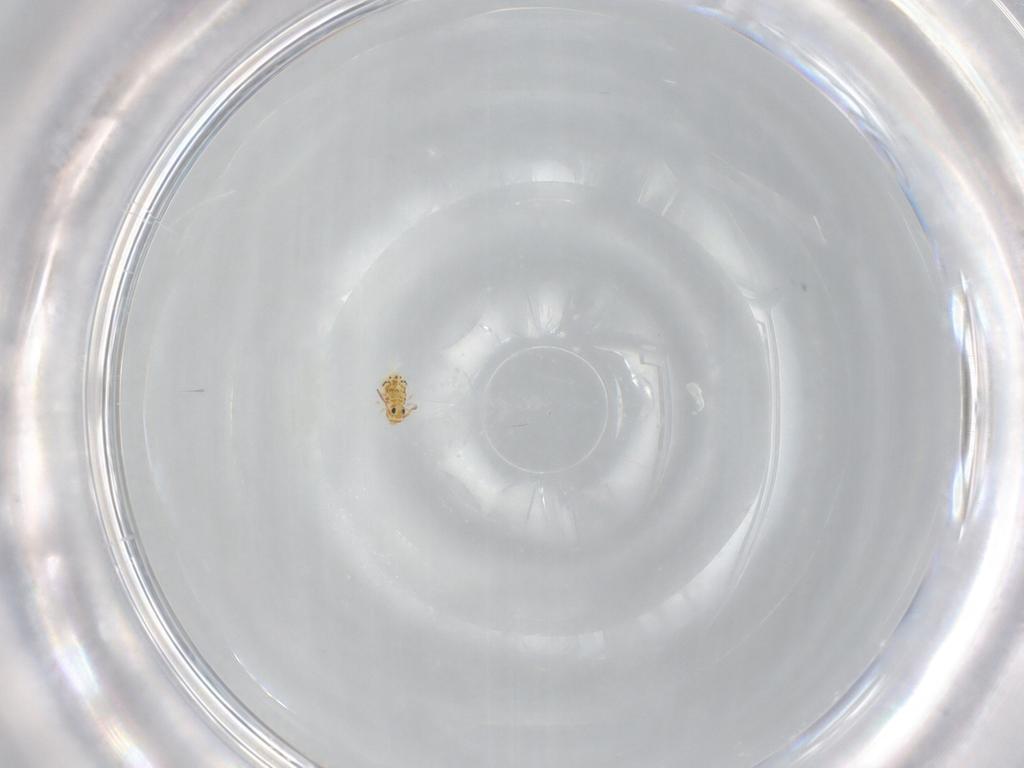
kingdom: Animalia
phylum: Arthropoda
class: Collembola
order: Symphypleona
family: Bourletiellidae
